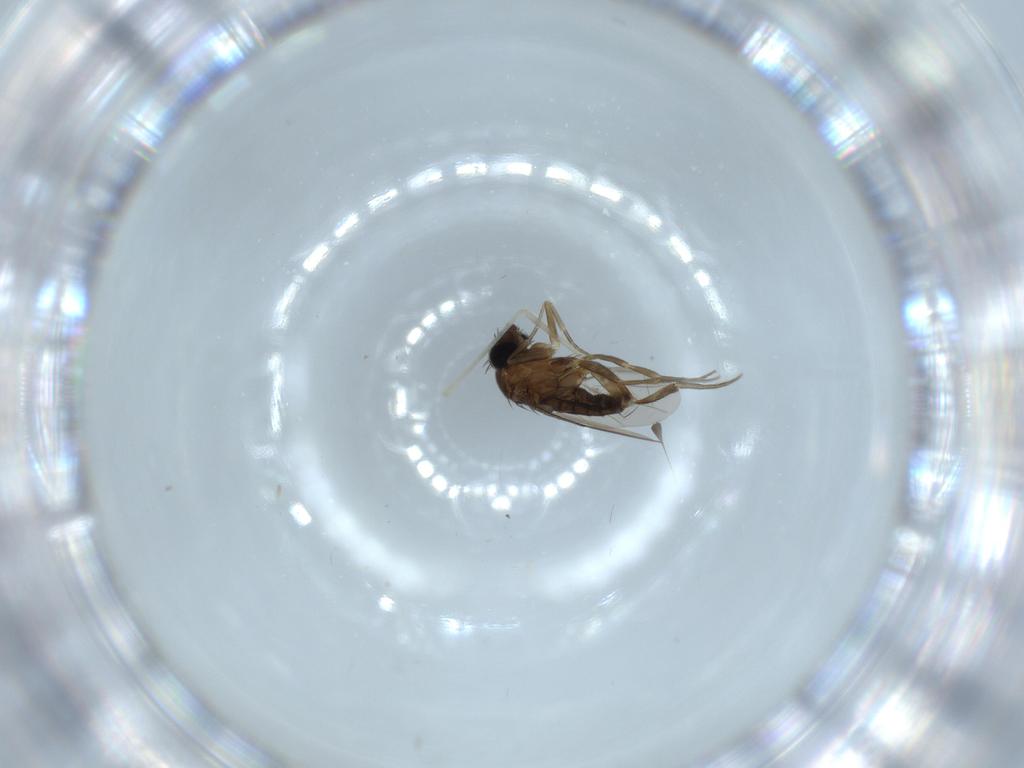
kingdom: Animalia
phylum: Arthropoda
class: Insecta
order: Diptera
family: Cecidomyiidae
